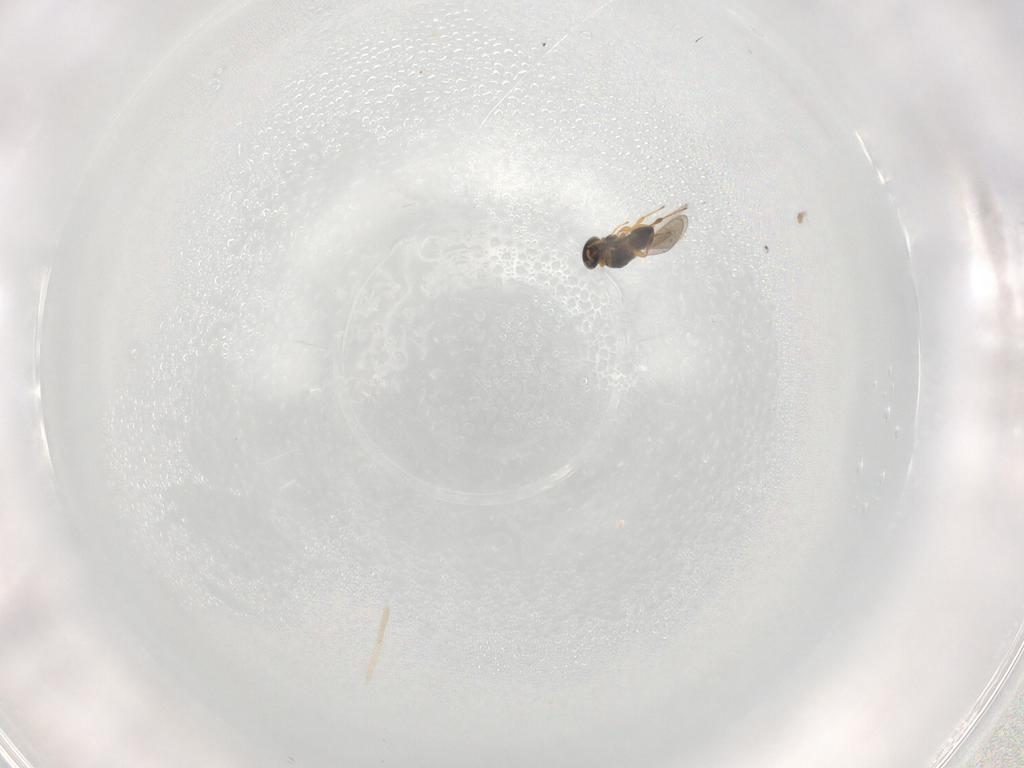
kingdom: Animalia
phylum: Arthropoda
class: Insecta
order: Hymenoptera
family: Platygastridae
